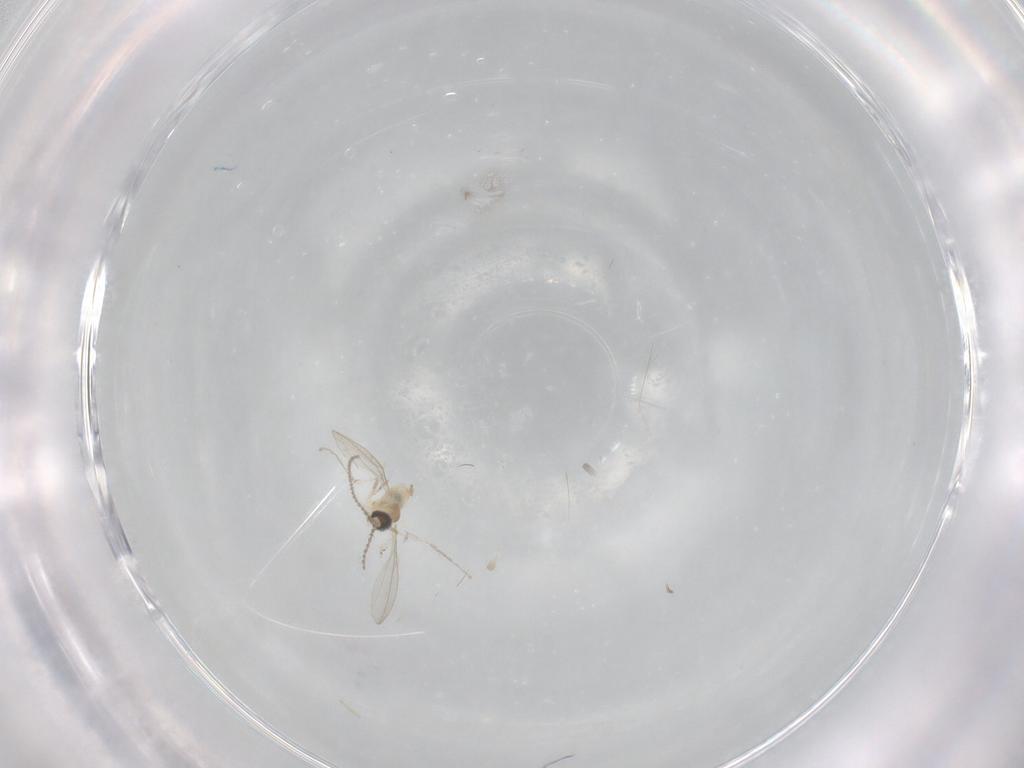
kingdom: Animalia
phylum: Arthropoda
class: Insecta
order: Diptera
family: Cecidomyiidae
